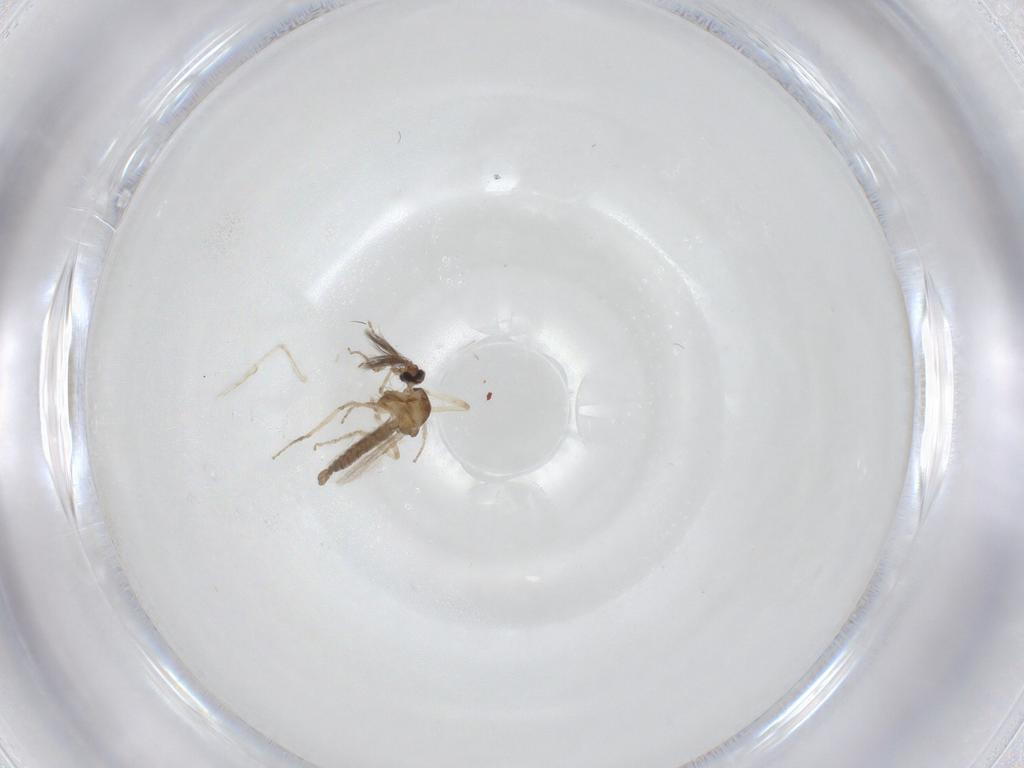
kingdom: Animalia
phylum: Arthropoda
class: Insecta
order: Diptera
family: Ceratopogonidae
